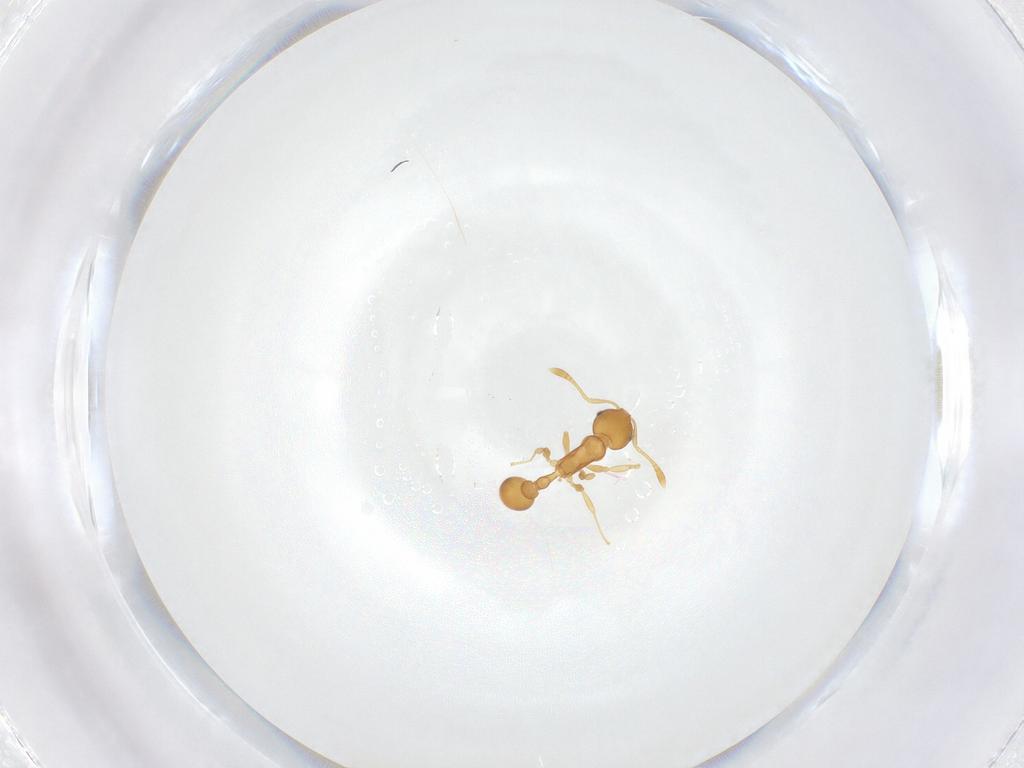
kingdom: Animalia
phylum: Arthropoda
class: Insecta
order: Hymenoptera
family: Formicidae
